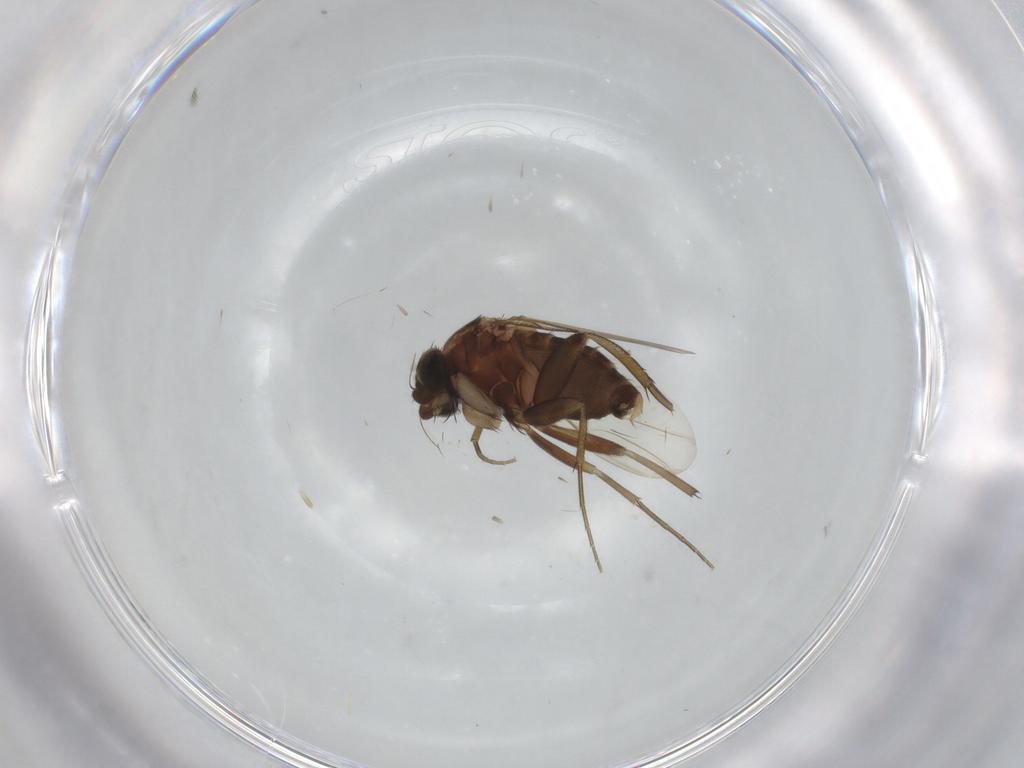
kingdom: Animalia
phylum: Arthropoda
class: Insecta
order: Diptera
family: Phoridae
